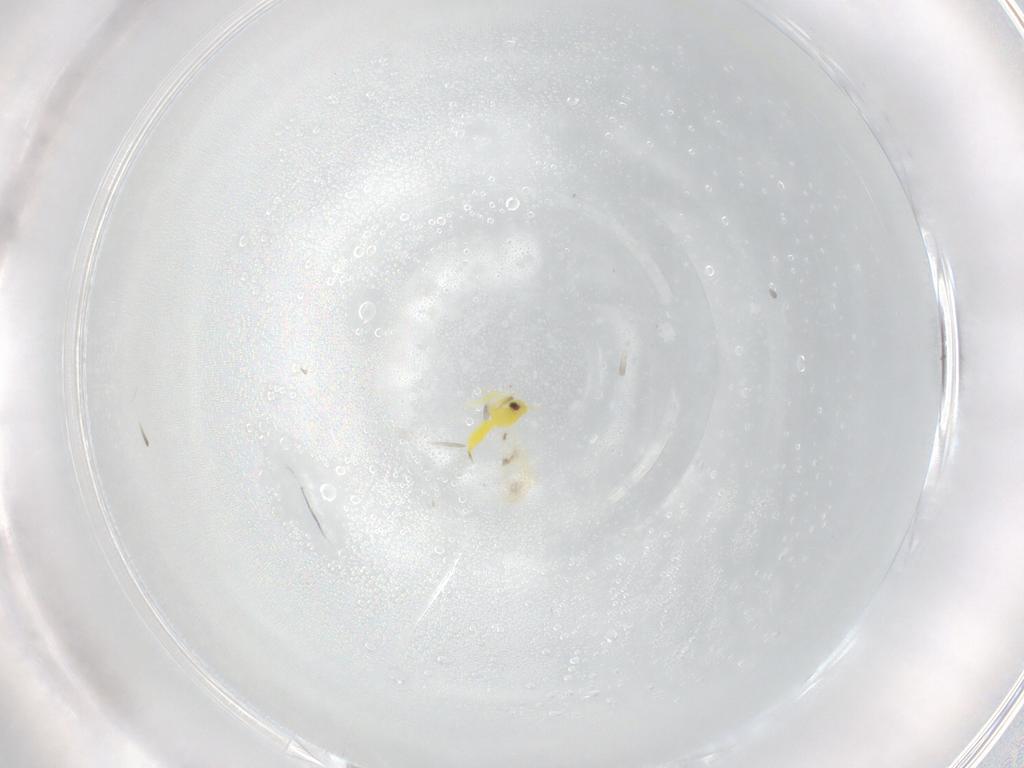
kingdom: Animalia
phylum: Arthropoda
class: Insecta
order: Hemiptera
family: Aleyrodidae
